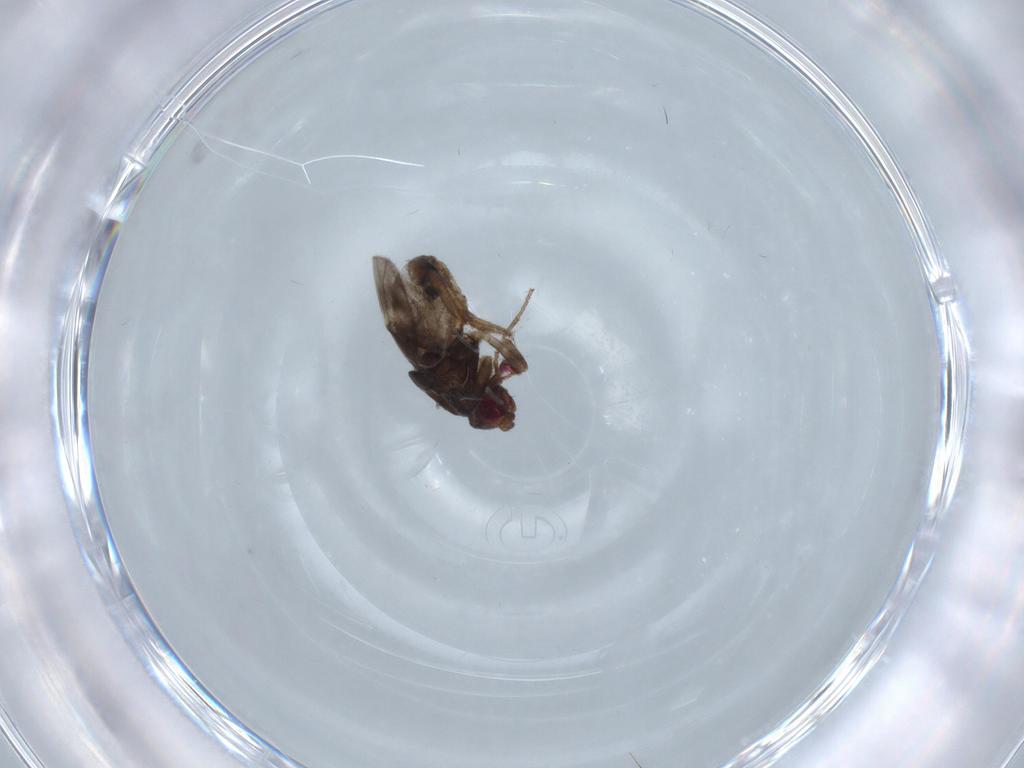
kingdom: Animalia
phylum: Arthropoda
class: Insecta
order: Diptera
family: Sphaeroceridae
